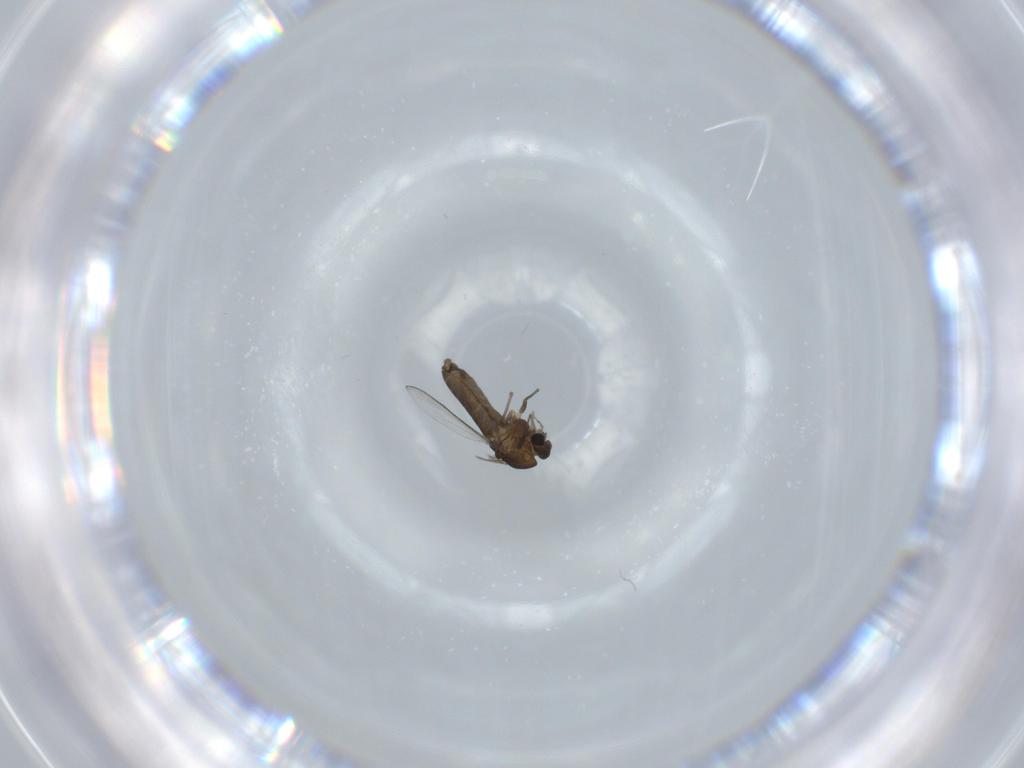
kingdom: Animalia
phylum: Arthropoda
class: Insecta
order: Diptera
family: Chironomidae
